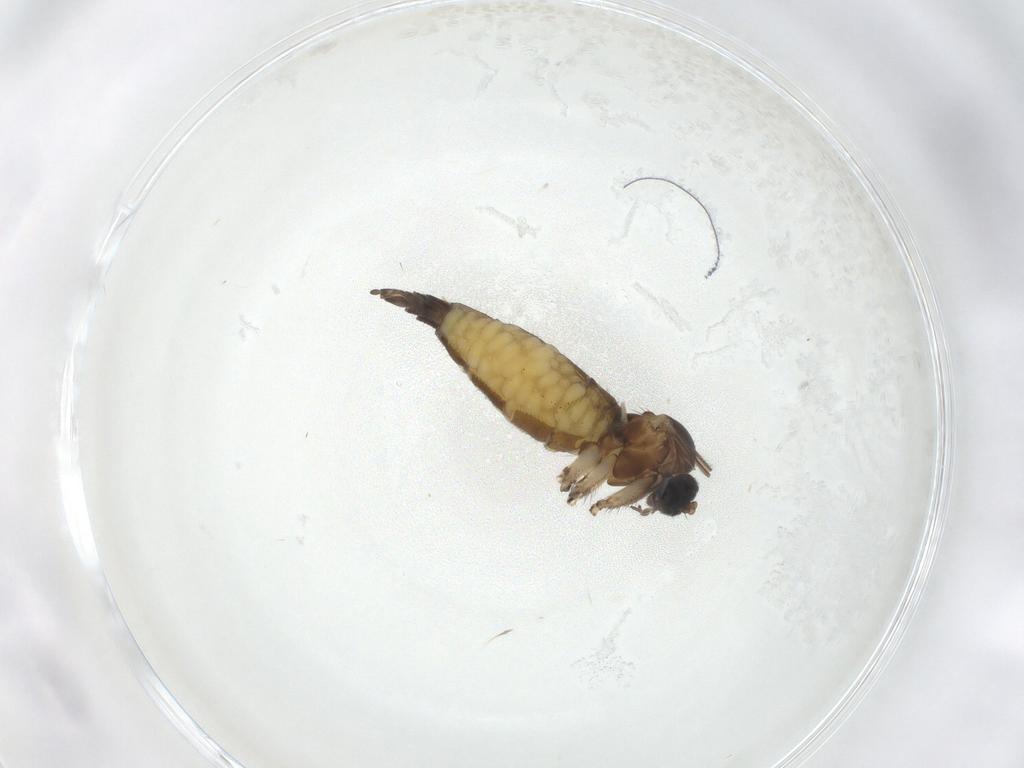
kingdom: Animalia
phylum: Arthropoda
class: Insecta
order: Diptera
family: Sciaridae
